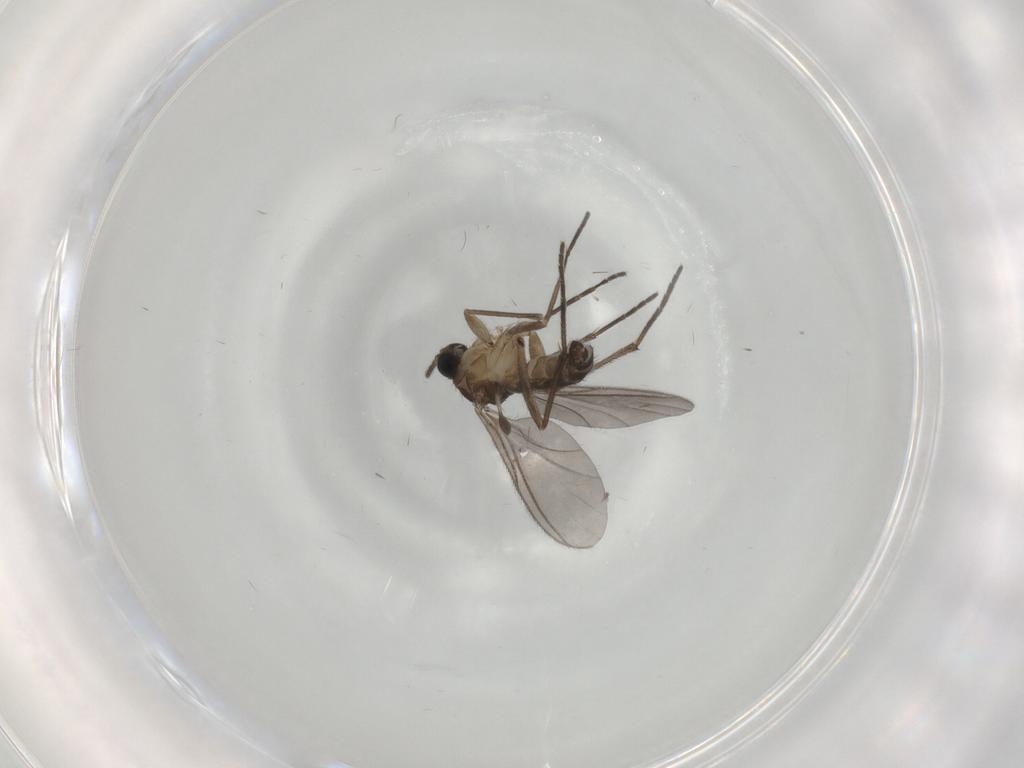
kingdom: Animalia
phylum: Arthropoda
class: Insecta
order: Diptera
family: Sciaridae
